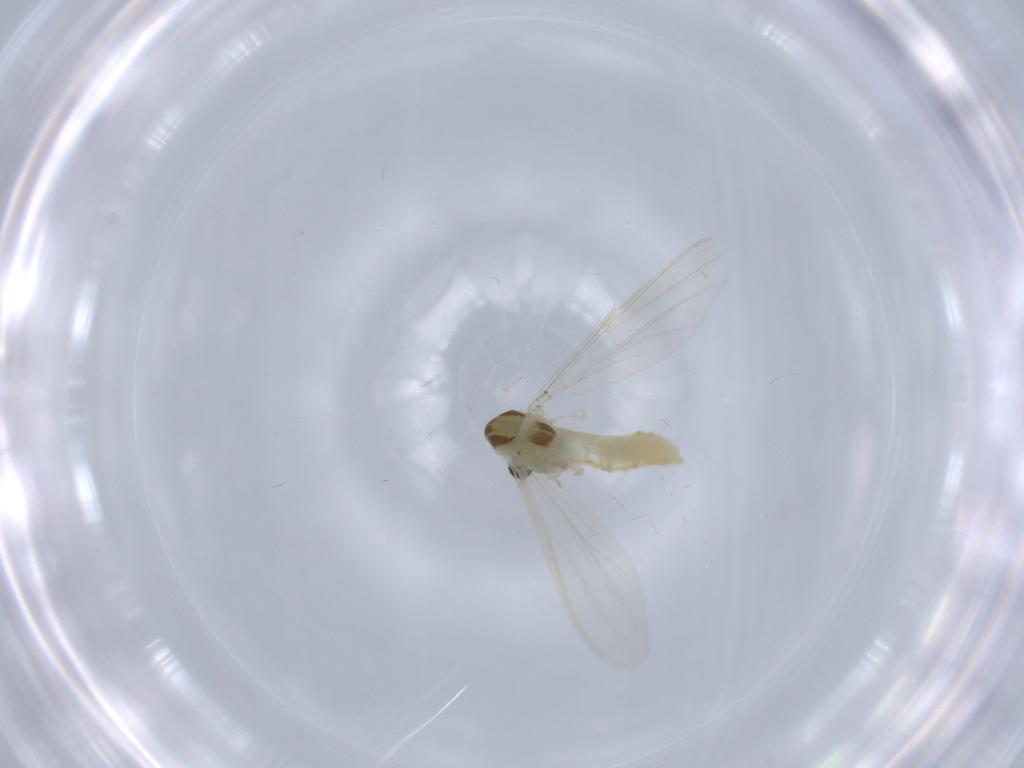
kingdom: Animalia
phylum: Arthropoda
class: Insecta
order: Diptera
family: Chironomidae
